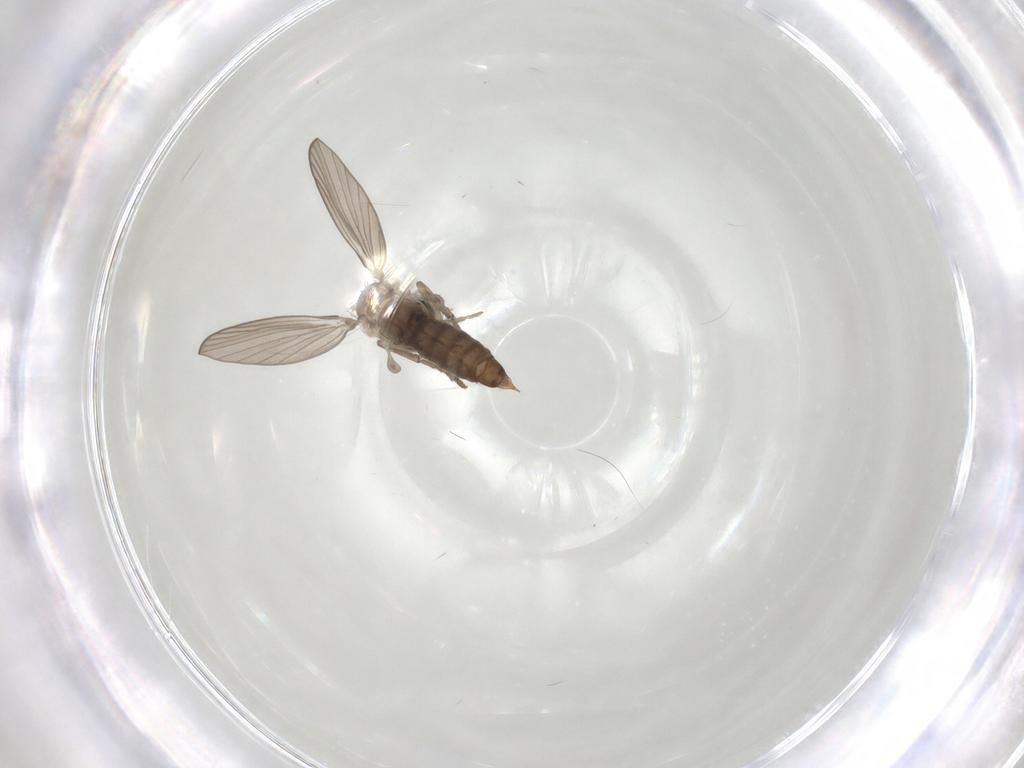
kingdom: Animalia
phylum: Arthropoda
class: Insecta
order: Diptera
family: Psychodidae
